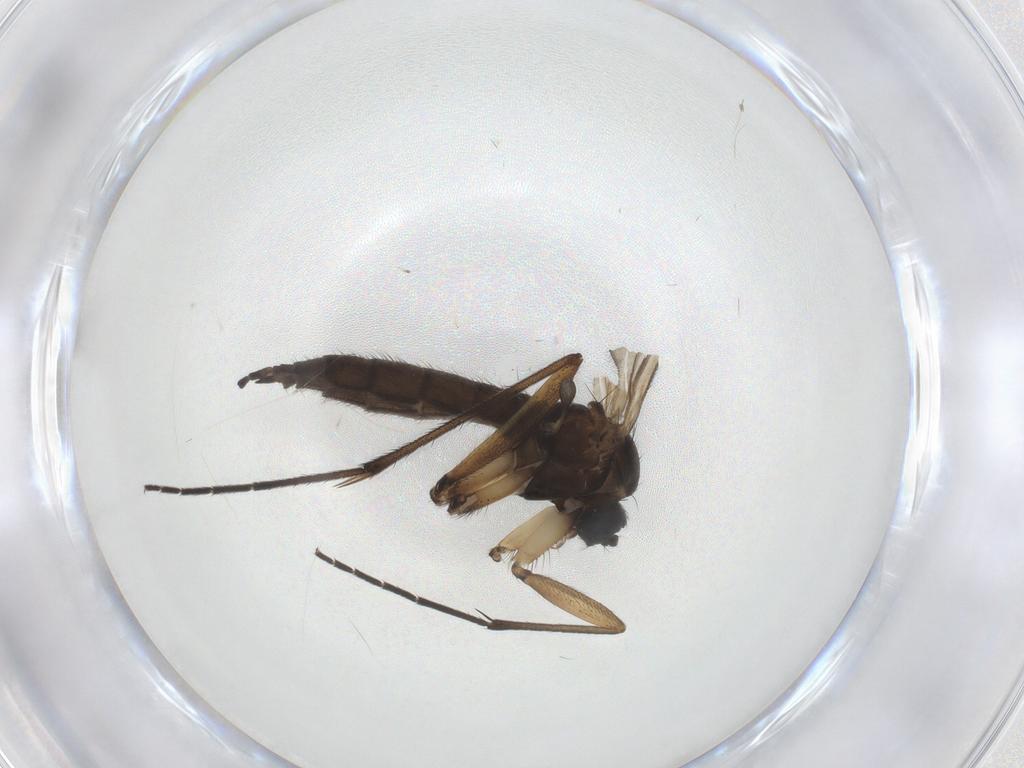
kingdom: Animalia
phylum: Arthropoda
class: Insecta
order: Diptera
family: Sciaridae
